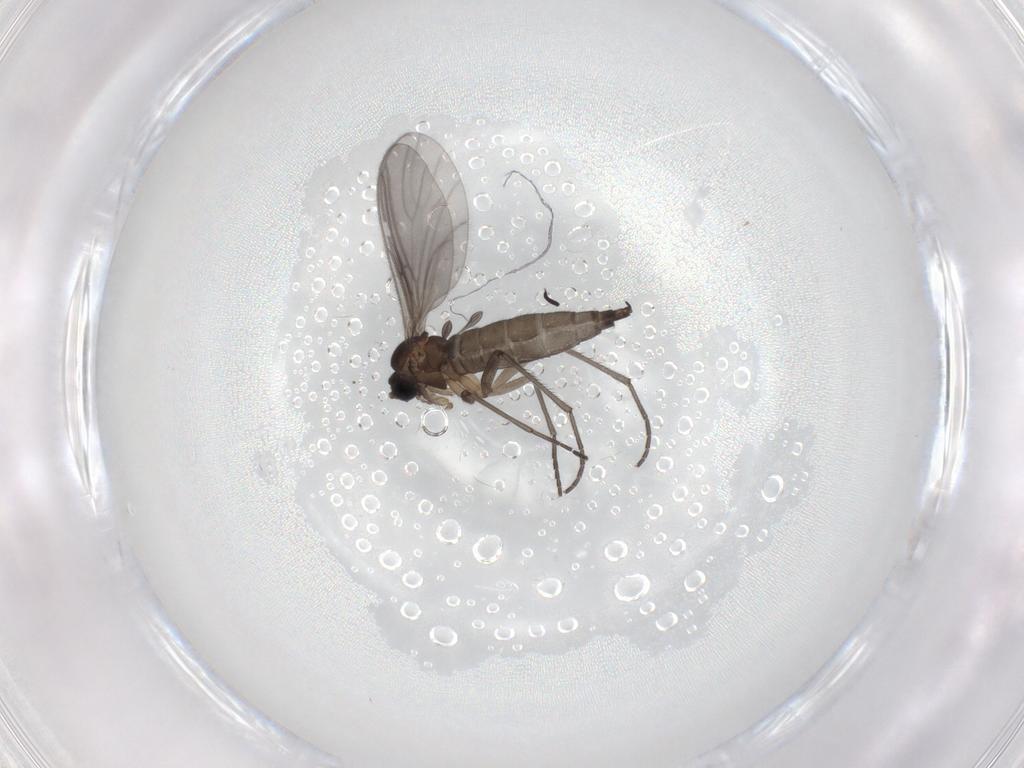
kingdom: Animalia
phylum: Arthropoda
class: Insecta
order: Diptera
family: Sciaridae
